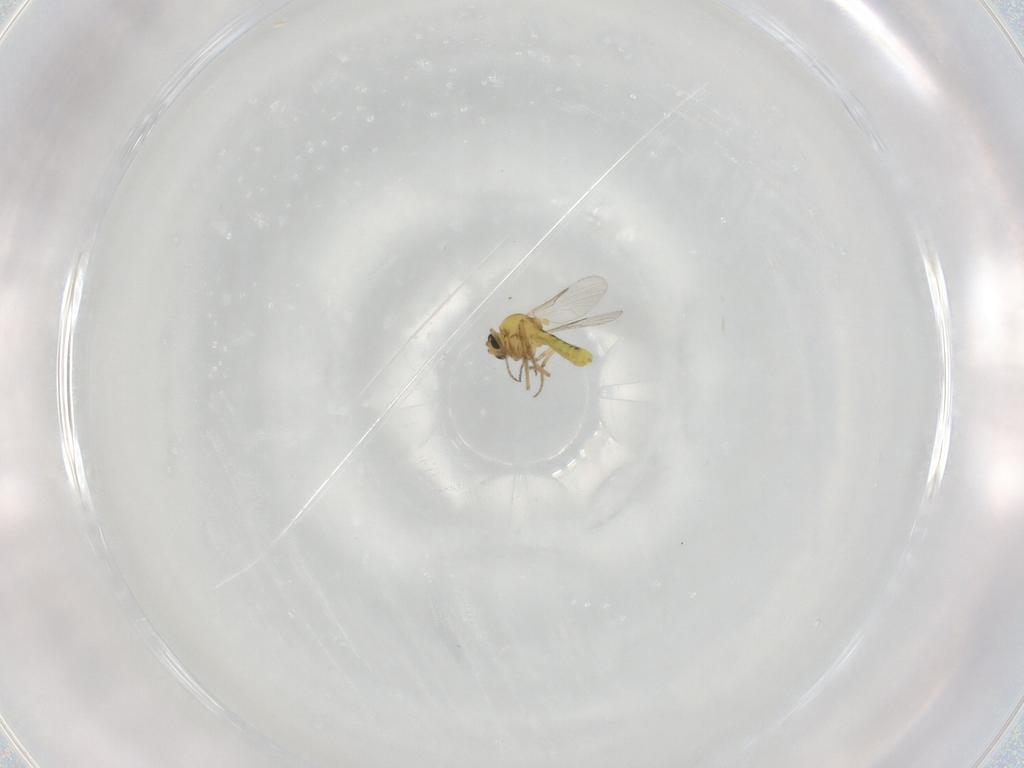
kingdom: Animalia
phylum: Arthropoda
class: Insecta
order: Diptera
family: Ceratopogonidae
